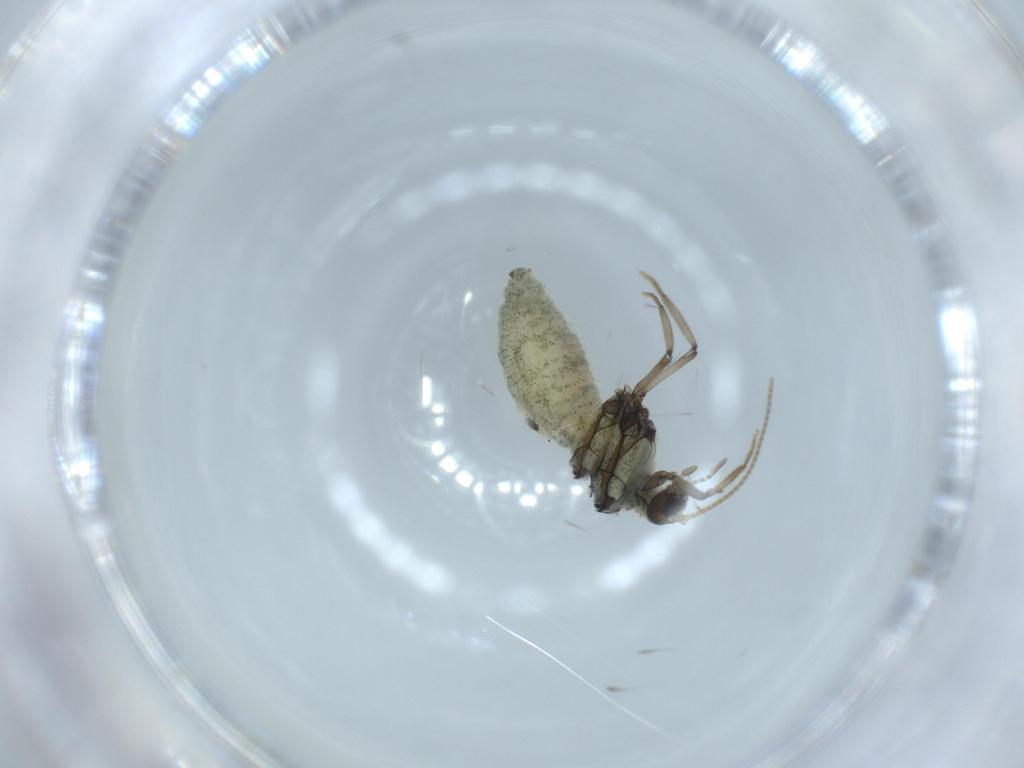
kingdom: Animalia
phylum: Arthropoda
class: Insecta
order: Neuroptera
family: Coniopterygidae
